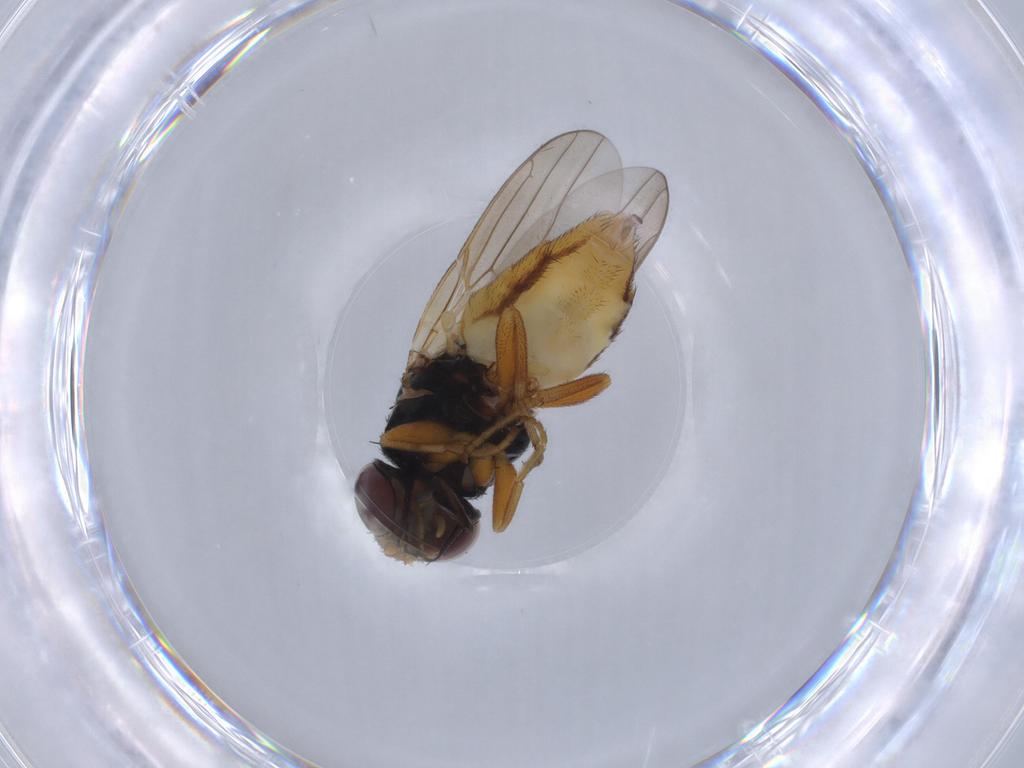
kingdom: Animalia
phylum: Arthropoda
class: Insecta
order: Diptera
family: Chloropidae
